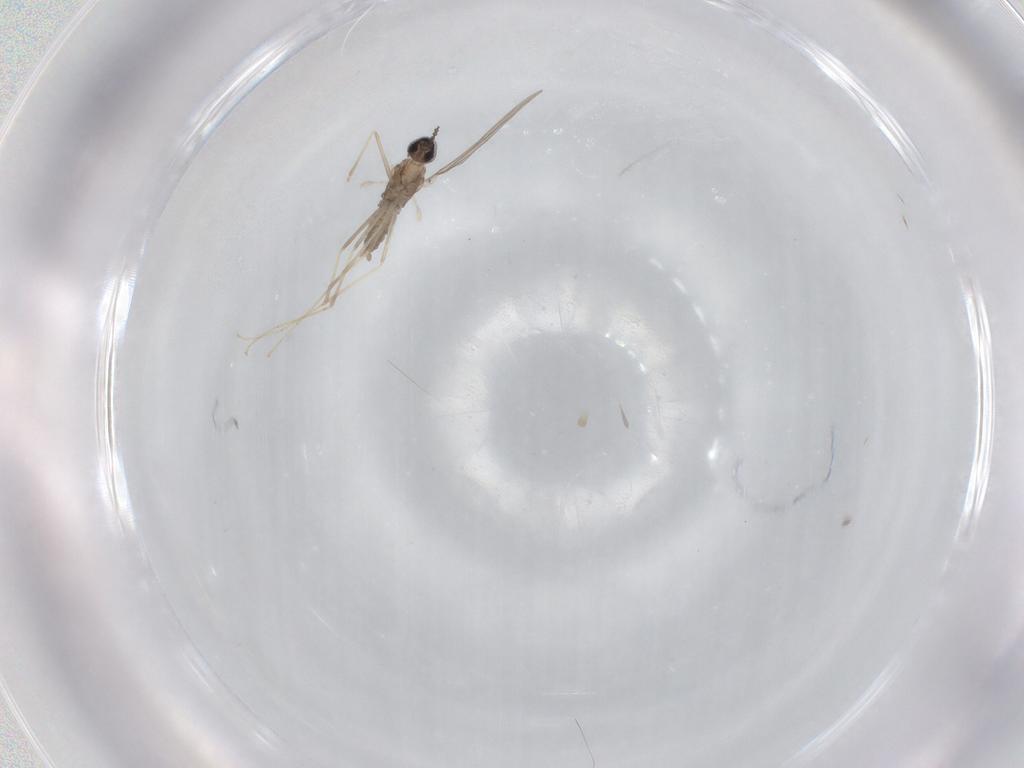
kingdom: Animalia
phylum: Arthropoda
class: Insecta
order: Diptera
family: Cecidomyiidae
